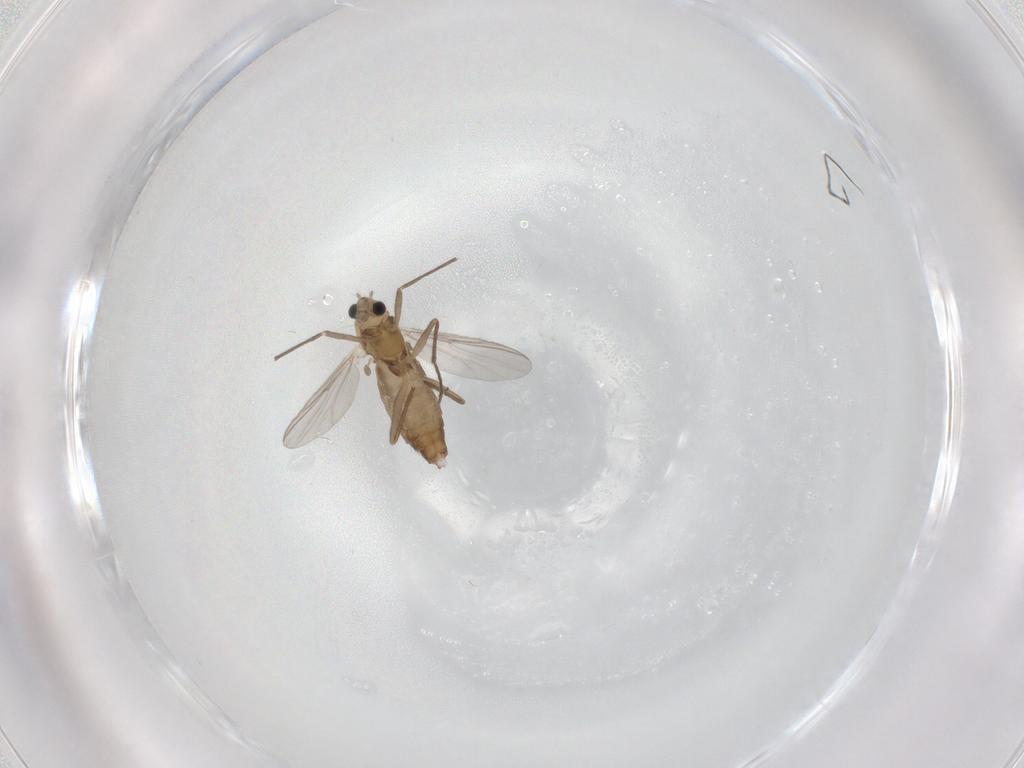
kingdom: Animalia
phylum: Arthropoda
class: Insecta
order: Diptera
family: Chironomidae
